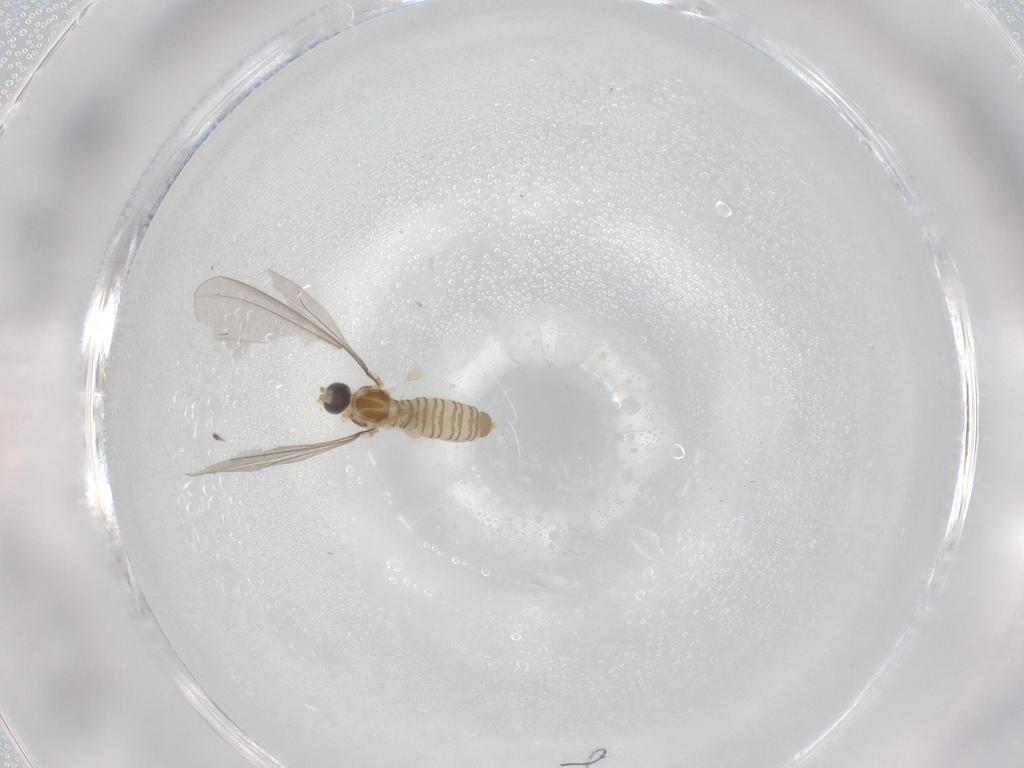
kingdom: Animalia
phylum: Arthropoda
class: Insecta
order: Diptera
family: Cecidomyiidae
